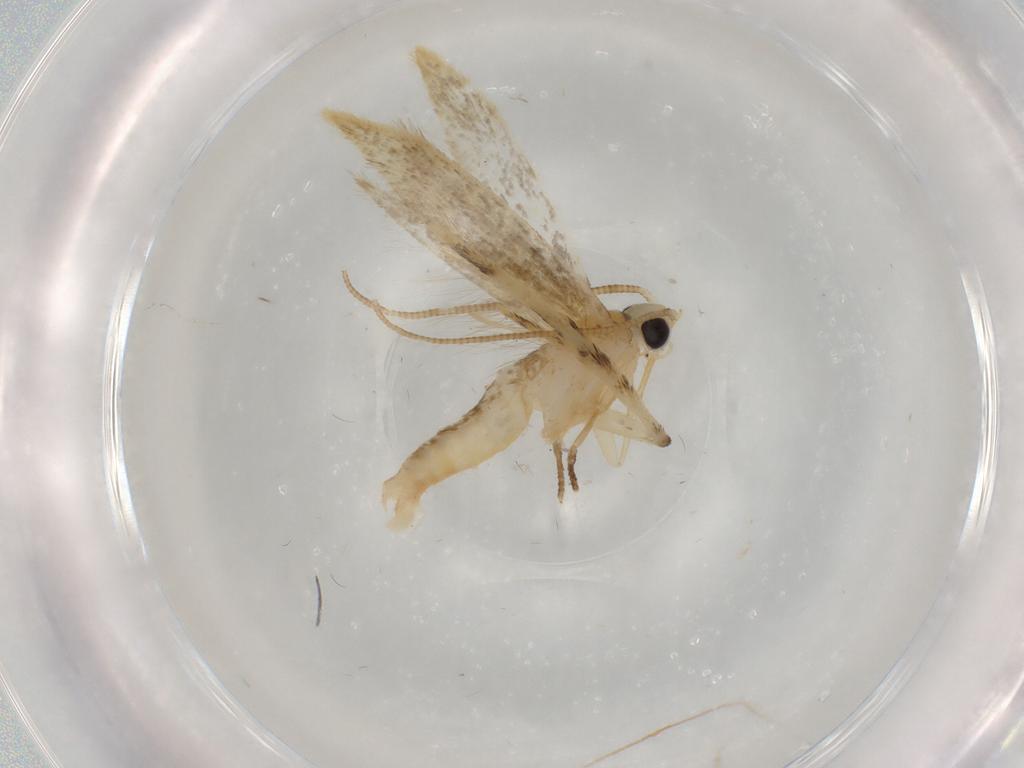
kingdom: Animalia
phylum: Arthropoda
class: Insecta
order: Lepidoptera
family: Tineidae
